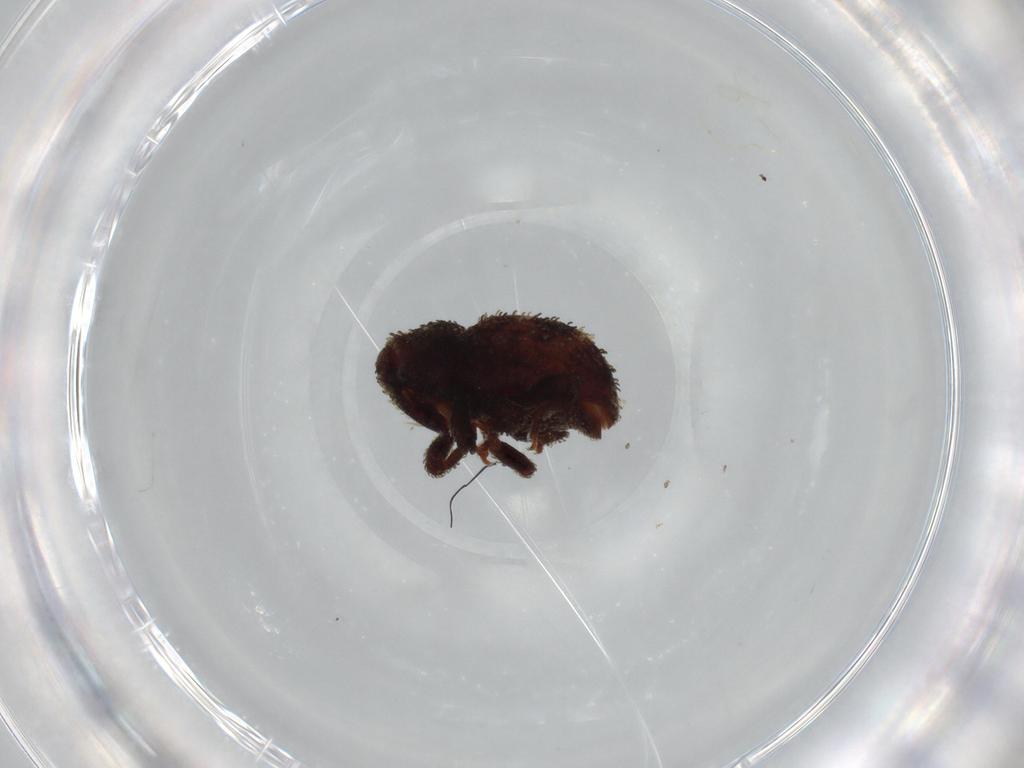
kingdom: Animalia
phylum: Arthropoda
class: Insecta
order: Coleoptera
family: Curculionidae
